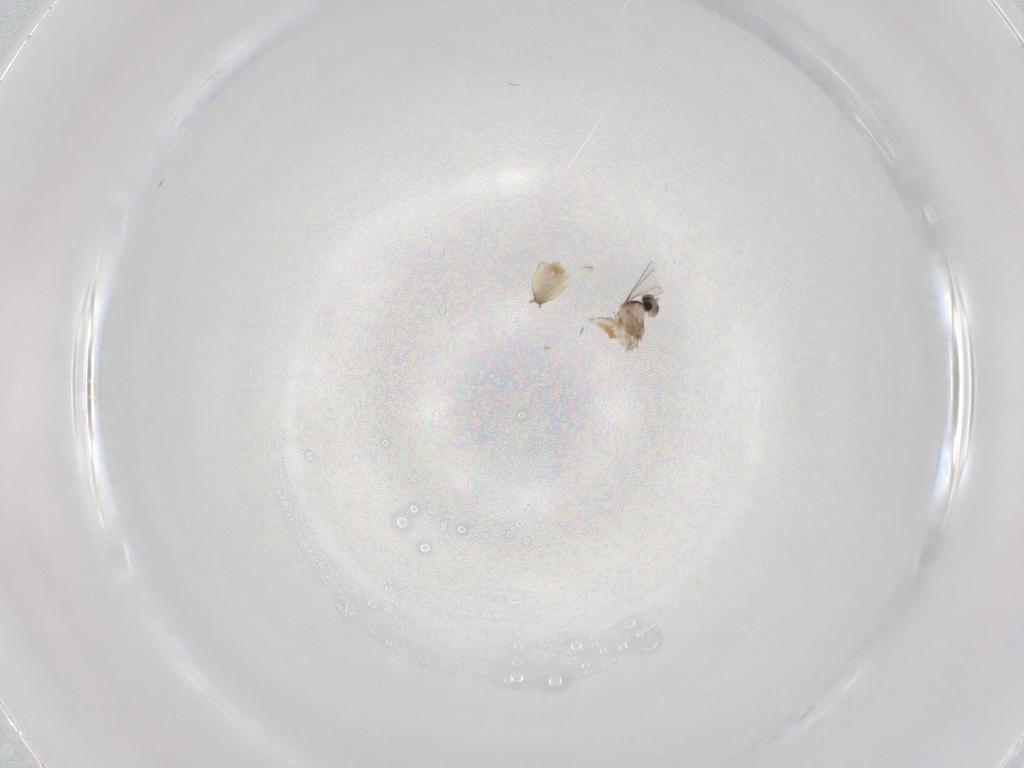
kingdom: Animalia
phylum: Arthropoda
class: Insecta
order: Diptera
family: Cecidomyiidae
